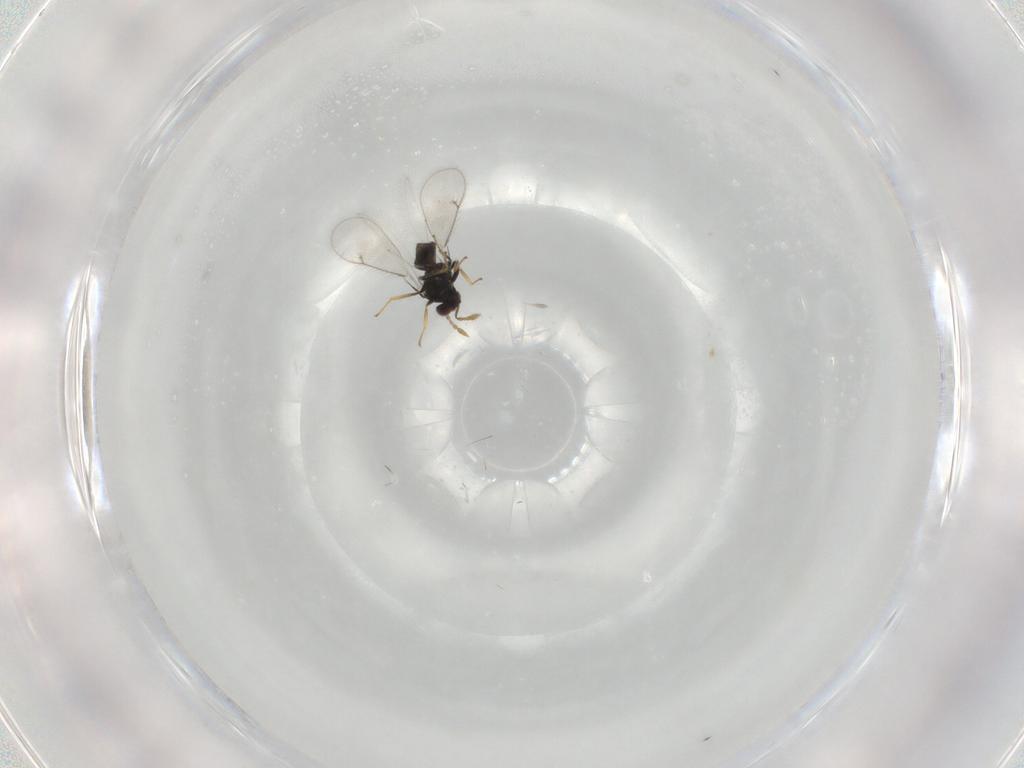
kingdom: Animalia
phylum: Arthropoda
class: Insecta
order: Hymenoptera
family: Eulophidae
